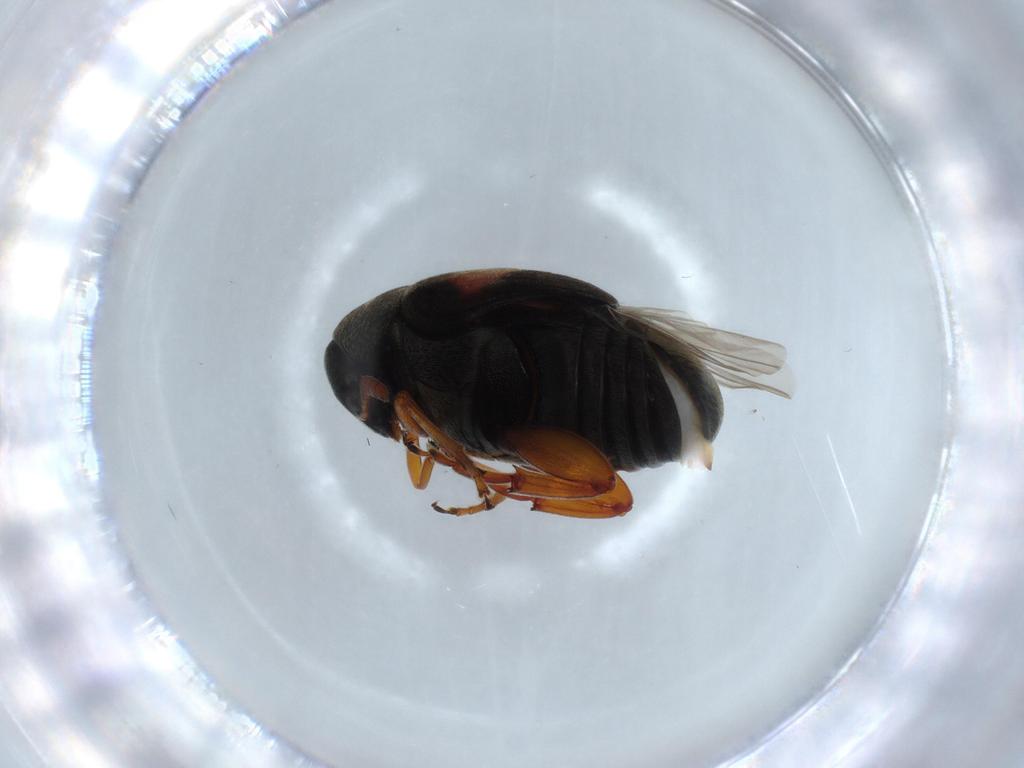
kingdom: Animalia
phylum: Arthropoda
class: Insecta
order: Coleoptera
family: Chrysomelidae
